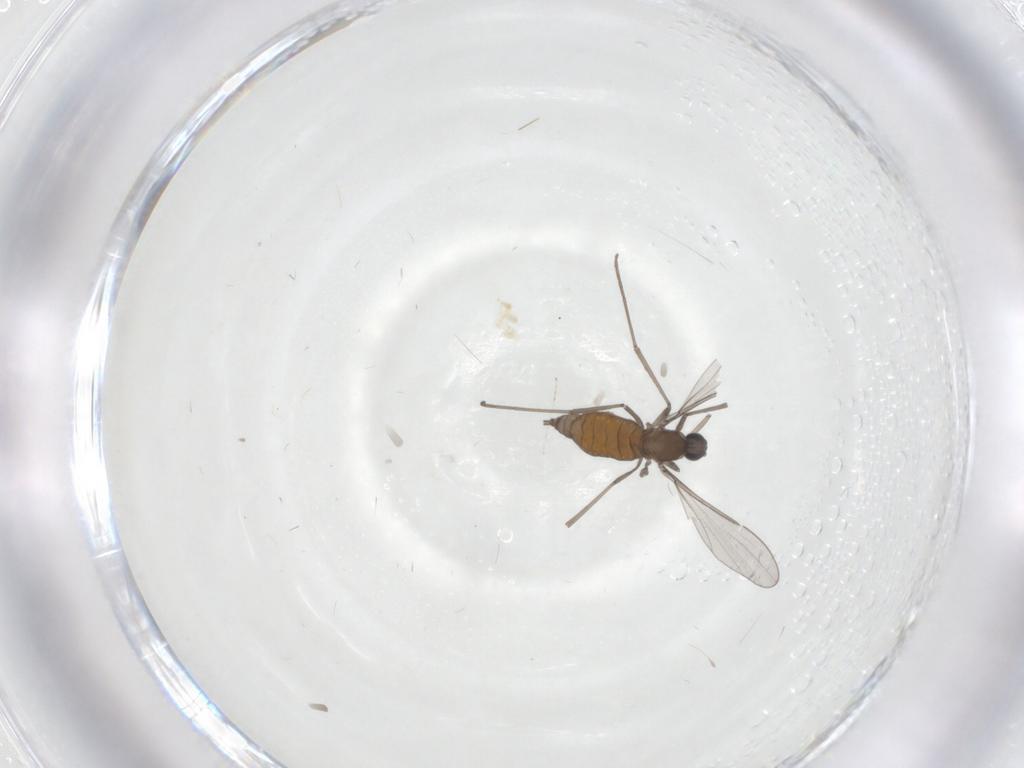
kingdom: Animalia
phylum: Arthropoda
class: Insecta
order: Diptera
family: Cecidomyiidae
